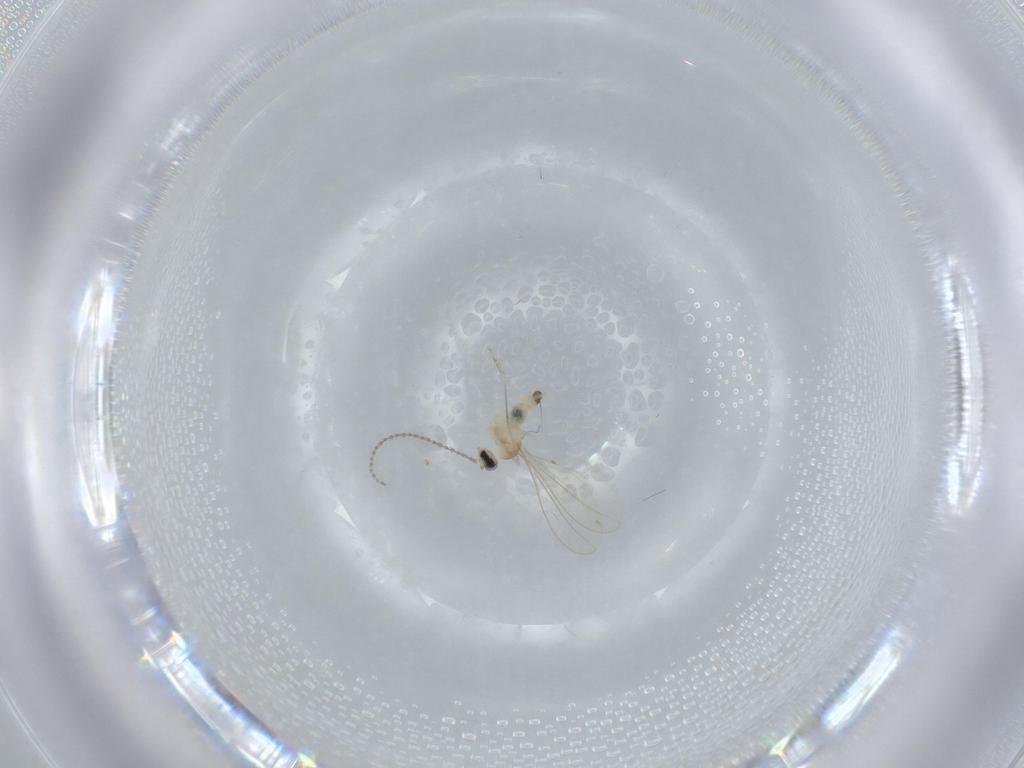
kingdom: Animalia
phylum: Arthropoda
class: Insecta
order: Diptera
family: Cecidomyiidae
